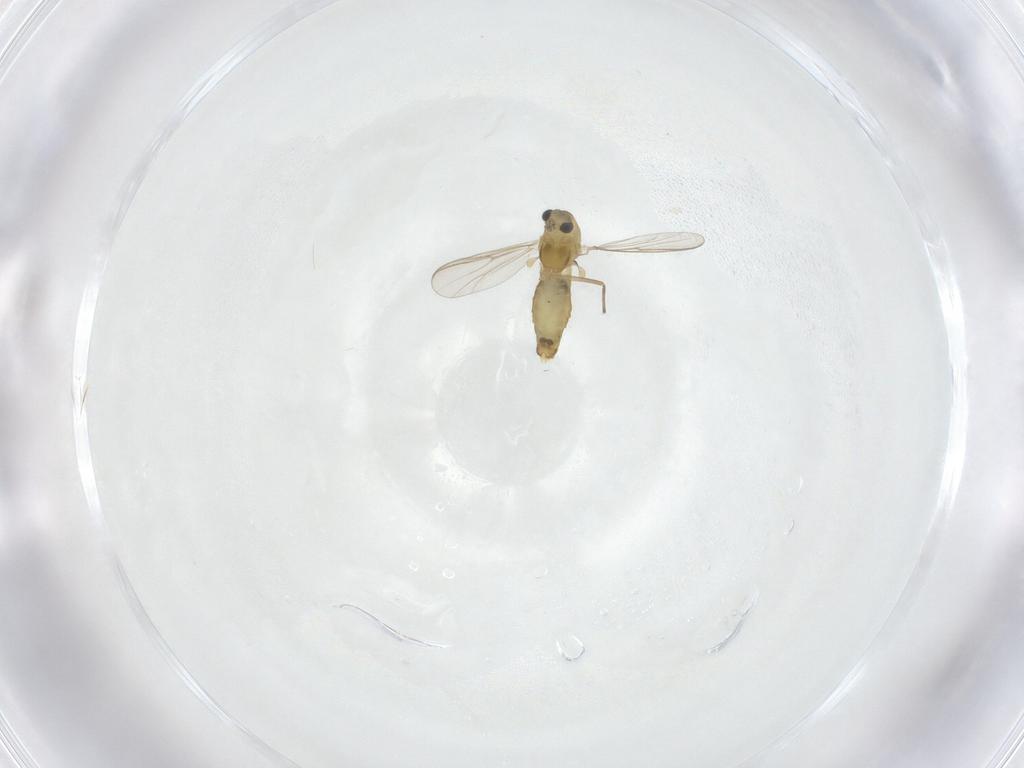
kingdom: Animalia
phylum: Arthropoda
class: Insecta
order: Diptera
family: Chironomidae
